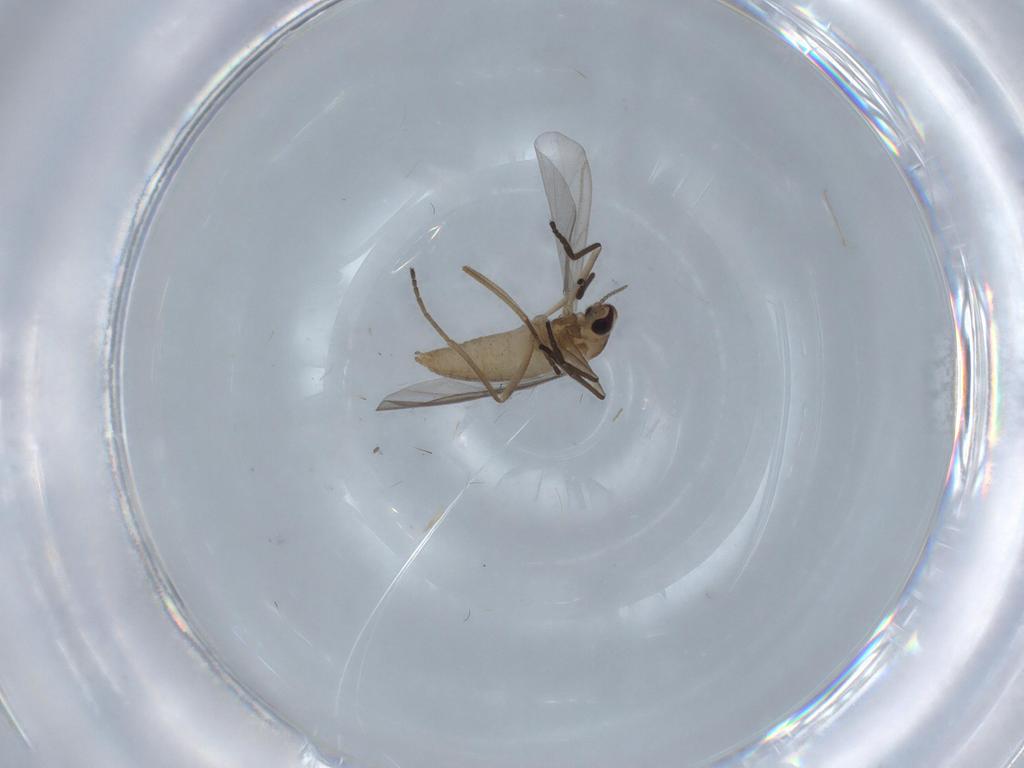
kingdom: Animalia
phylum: Arthropoda
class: Insecta
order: Diptera
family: Cecidomyiidae
